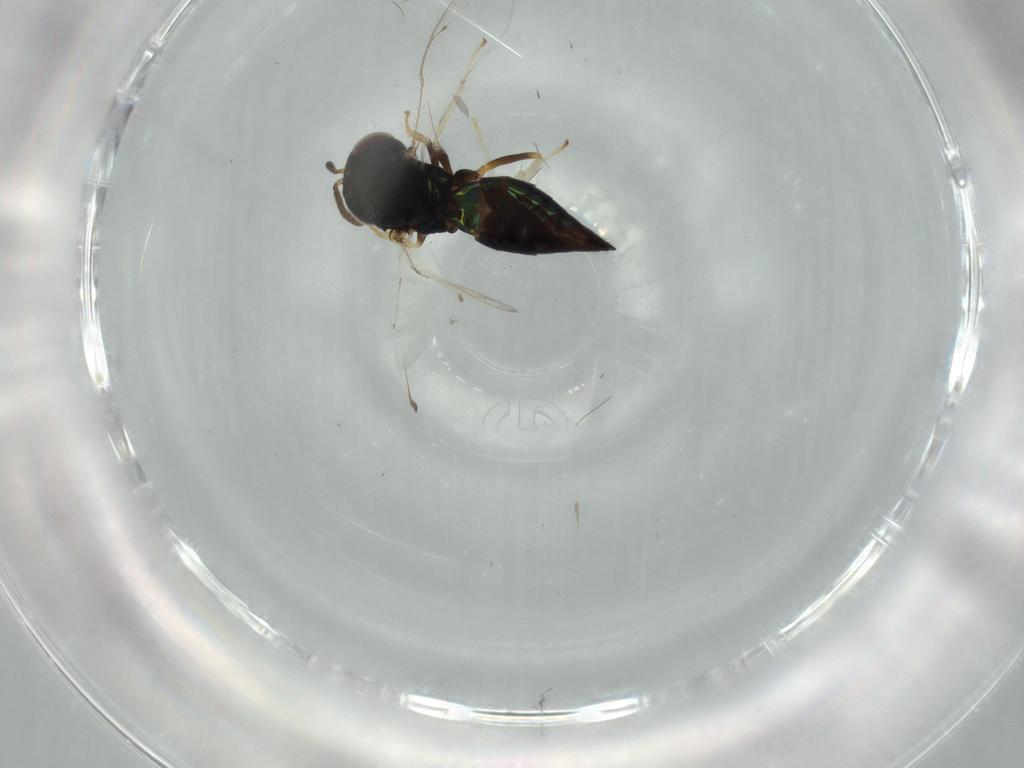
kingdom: Animalia
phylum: Arthropoda
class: Insecta
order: Hymenoptera
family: Pteromalidae
